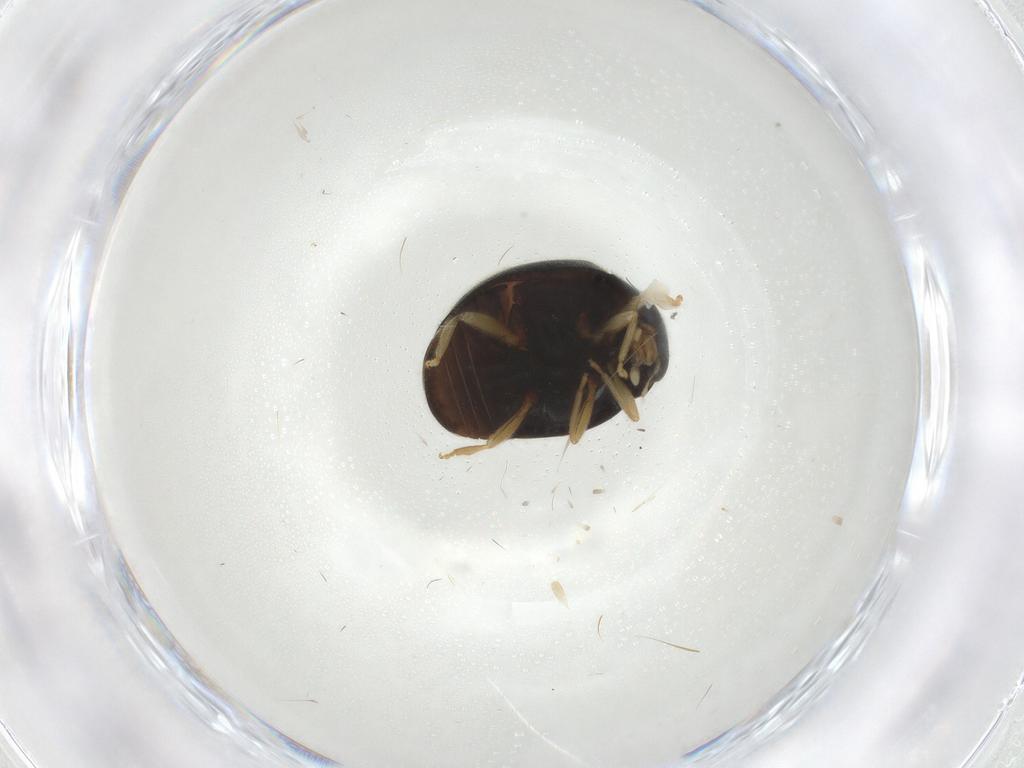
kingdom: Animalia
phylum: Arthropoda
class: Insecta
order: Coleoptera
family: Coccinellidae
